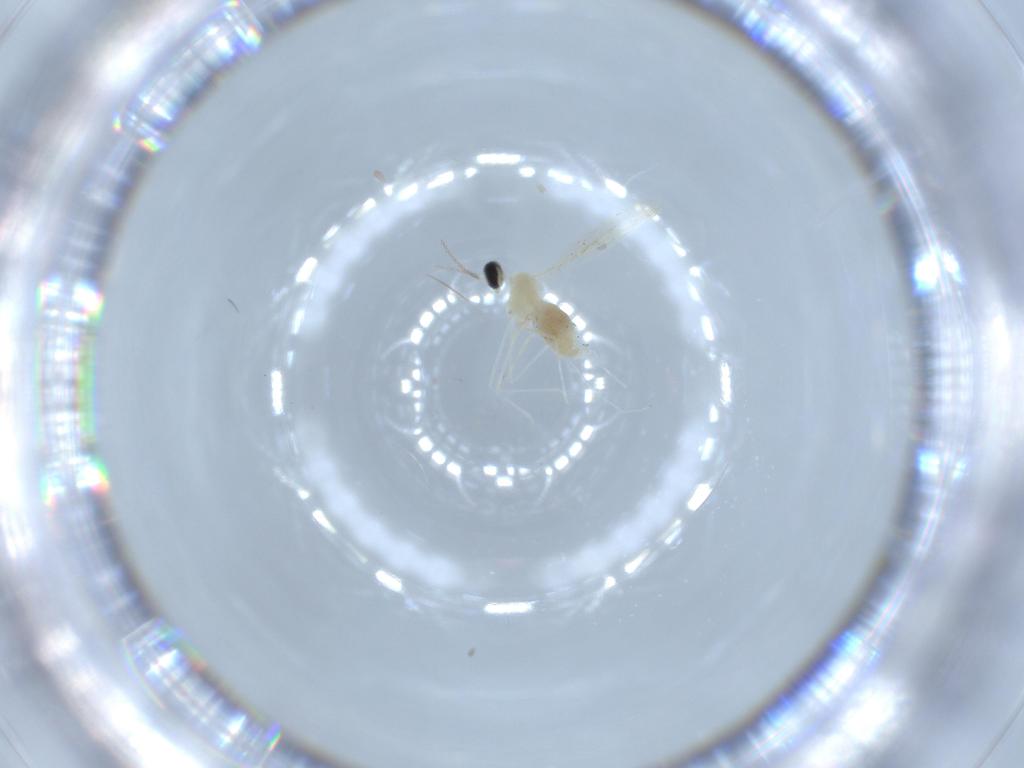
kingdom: Animalia
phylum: Arthropoda
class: Insecta
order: Diptera
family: Cecidomyiidae
